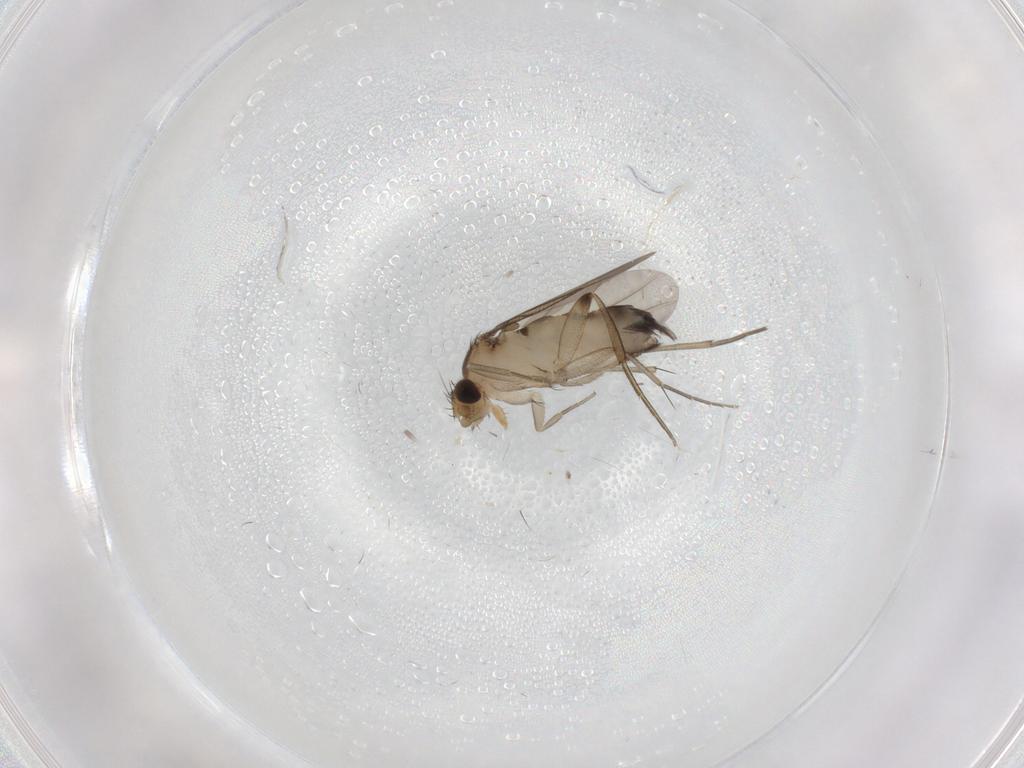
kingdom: Animalia
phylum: Arthropoda
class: Insecta
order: Diptera
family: Phoridae
